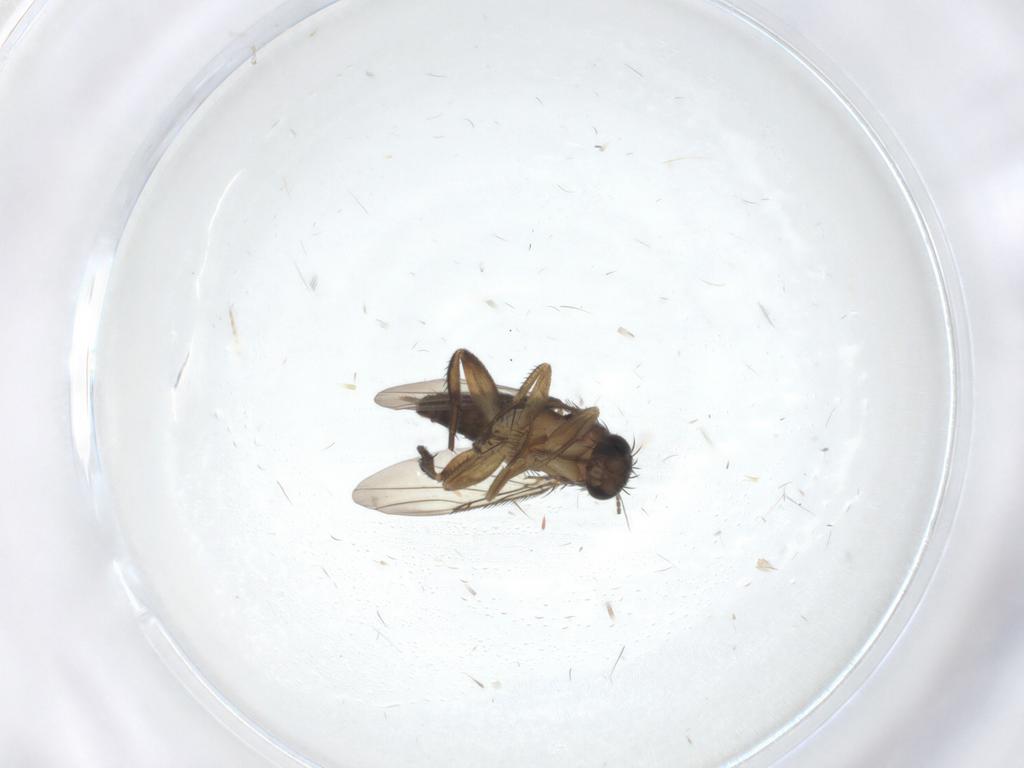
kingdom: Animalia
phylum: Arthropoda
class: Insecta
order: Diptera
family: Phoridae
